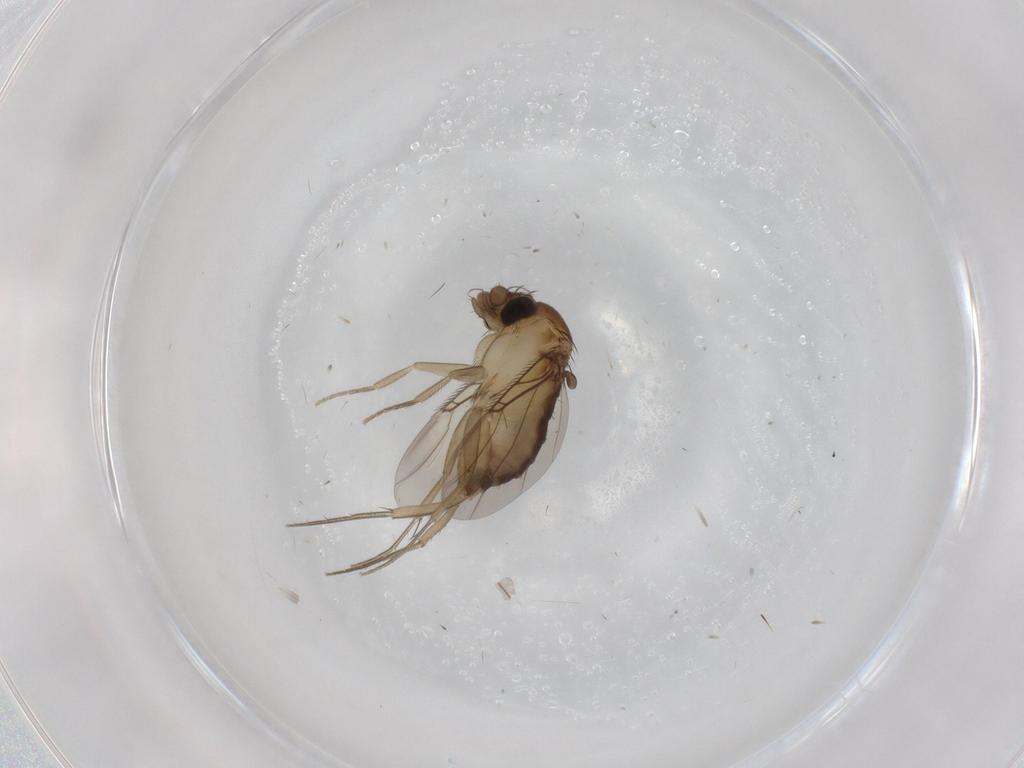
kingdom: Animalia
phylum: Arthropoda
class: Insecta
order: Diptera
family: Phoridae
